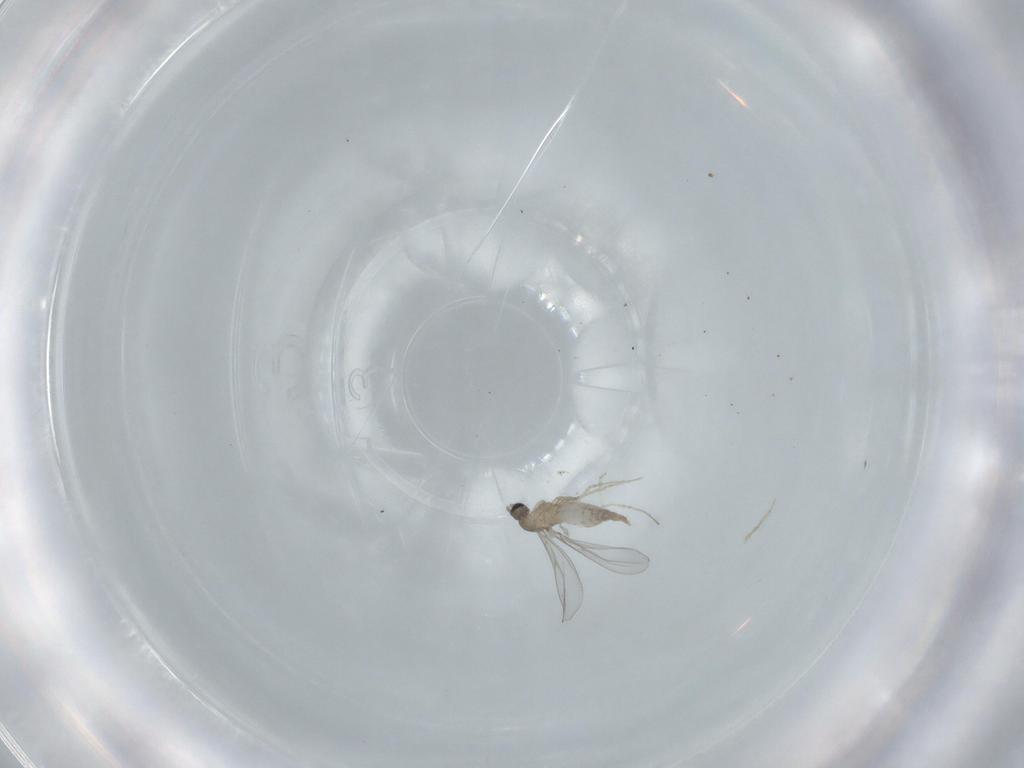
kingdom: Animalia
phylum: Arthropoda
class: Insecta
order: Diptera
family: Cecidomyiidae
